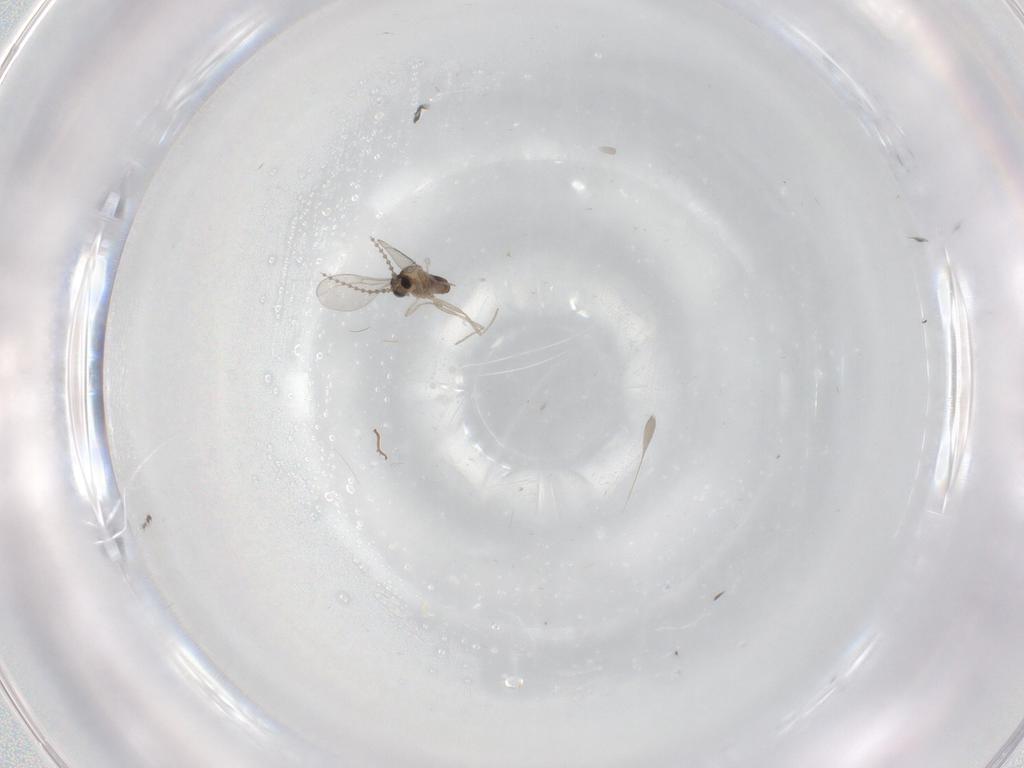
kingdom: Animalia
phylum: Arthropoda
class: Insecta
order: Diptera
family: Cecidomyiidae
